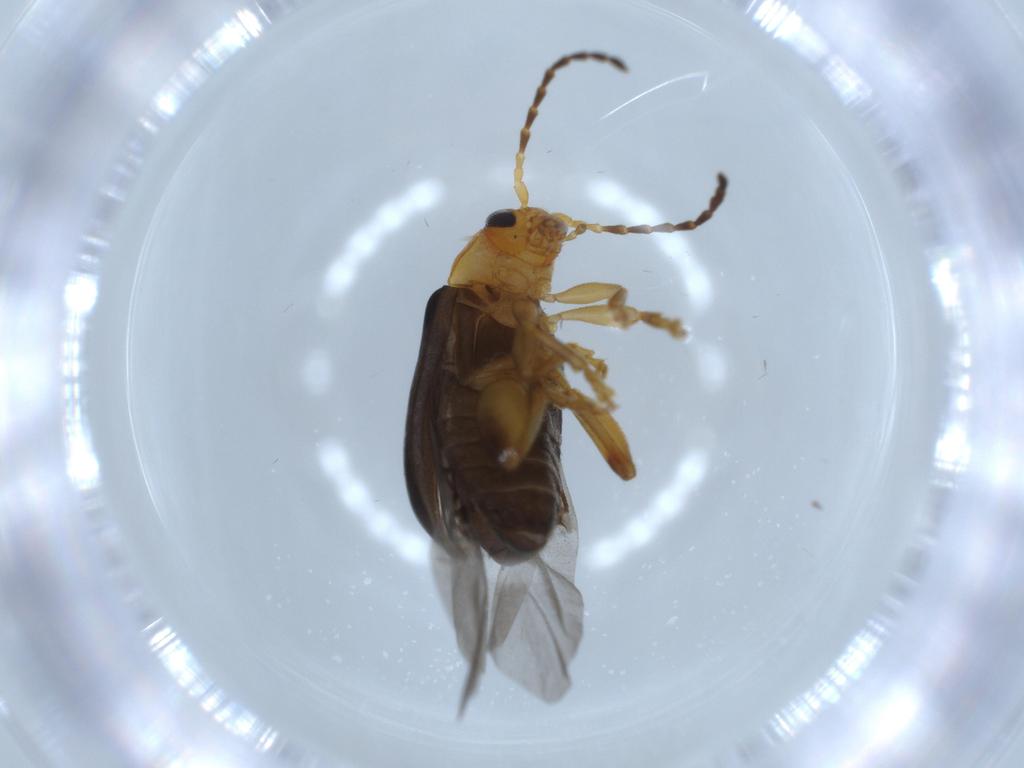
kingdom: Animalia
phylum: Arthropoda
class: Insecta
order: Coleoptera
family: Chrysomelidae
